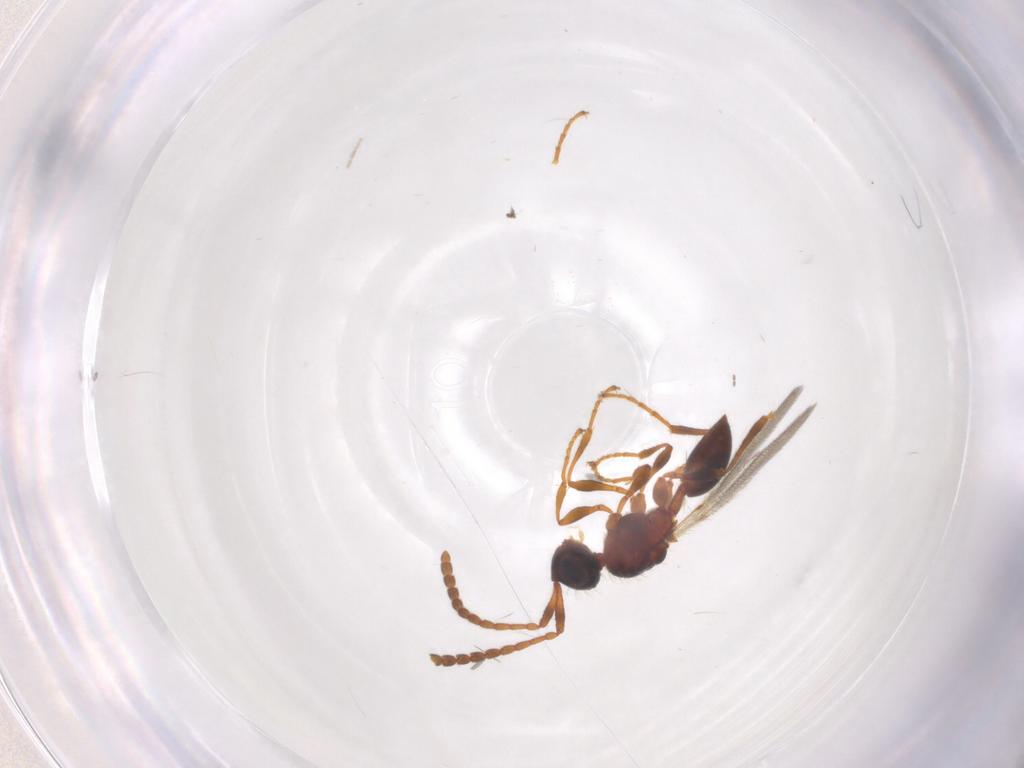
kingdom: Animalia
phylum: Arthropoda
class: Insecta
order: Hymenoptera
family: Diapriidae
